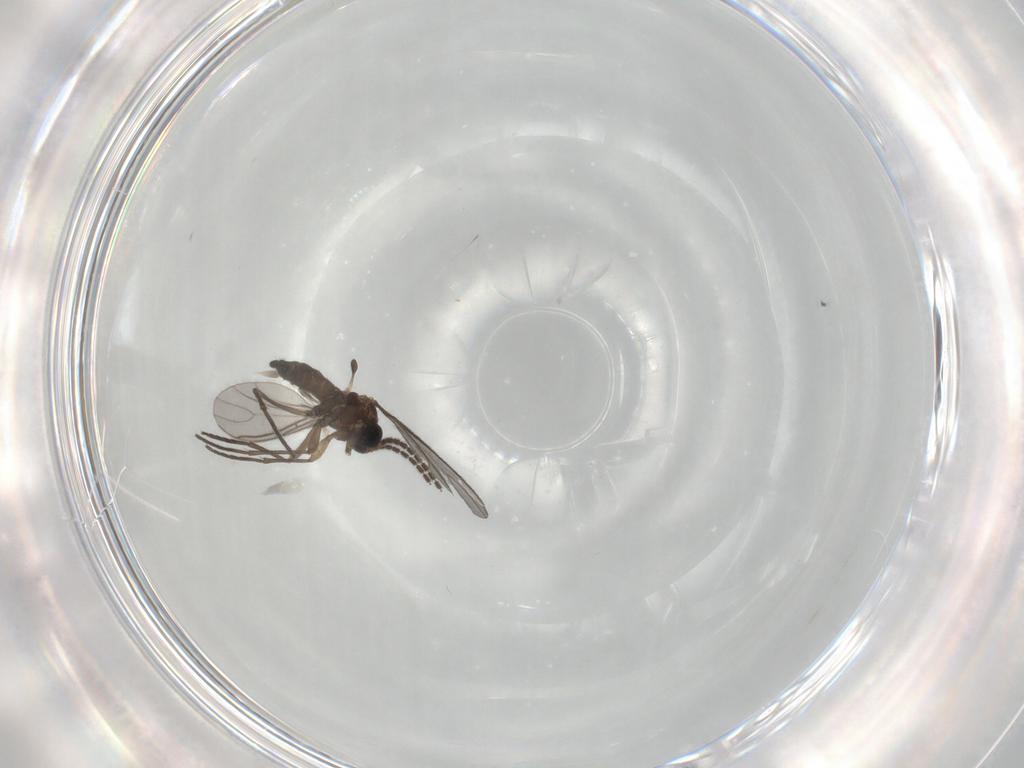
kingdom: Animalia
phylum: Arthropoda
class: Insecta
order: Diptera
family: Sciaridae
